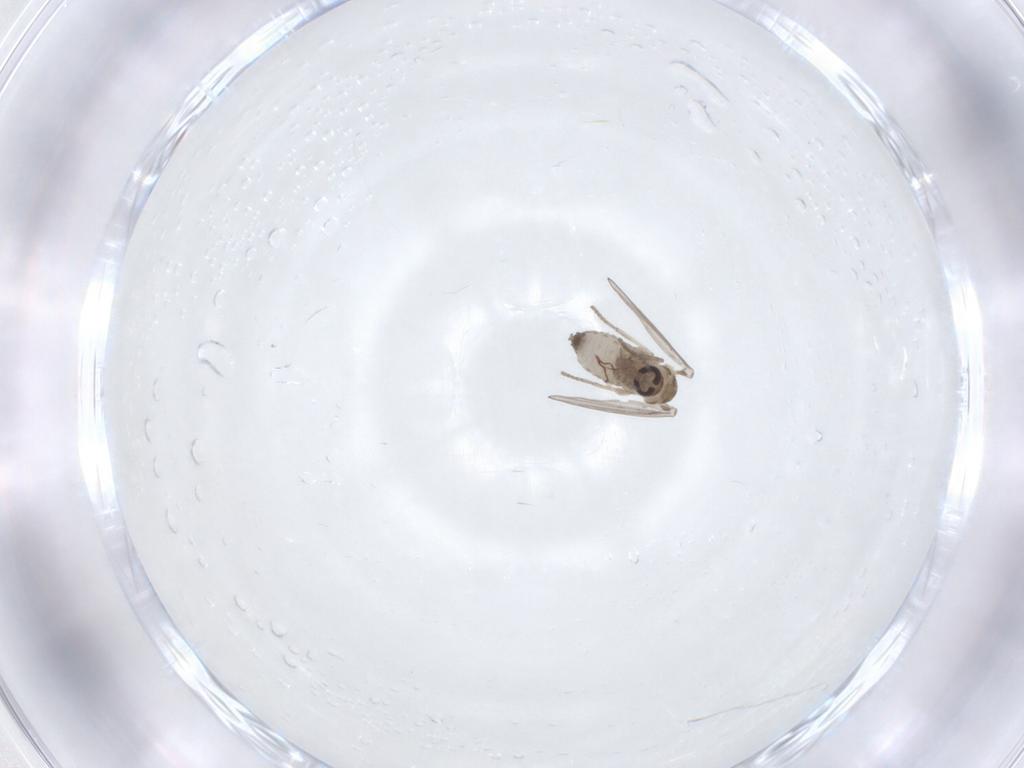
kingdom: Animalia
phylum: Arthropoda
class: Insecta
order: Diptera
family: Psychodidae
